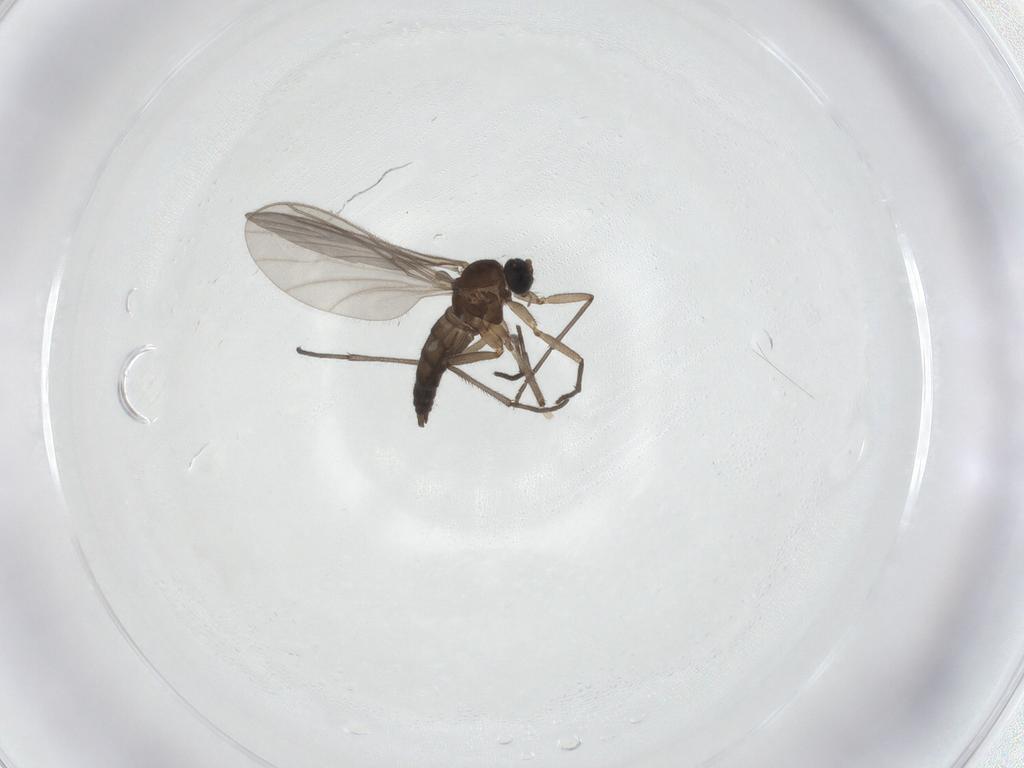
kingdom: Animalia
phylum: Arthropoda
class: Insecta
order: Diptera
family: Sciaridae
